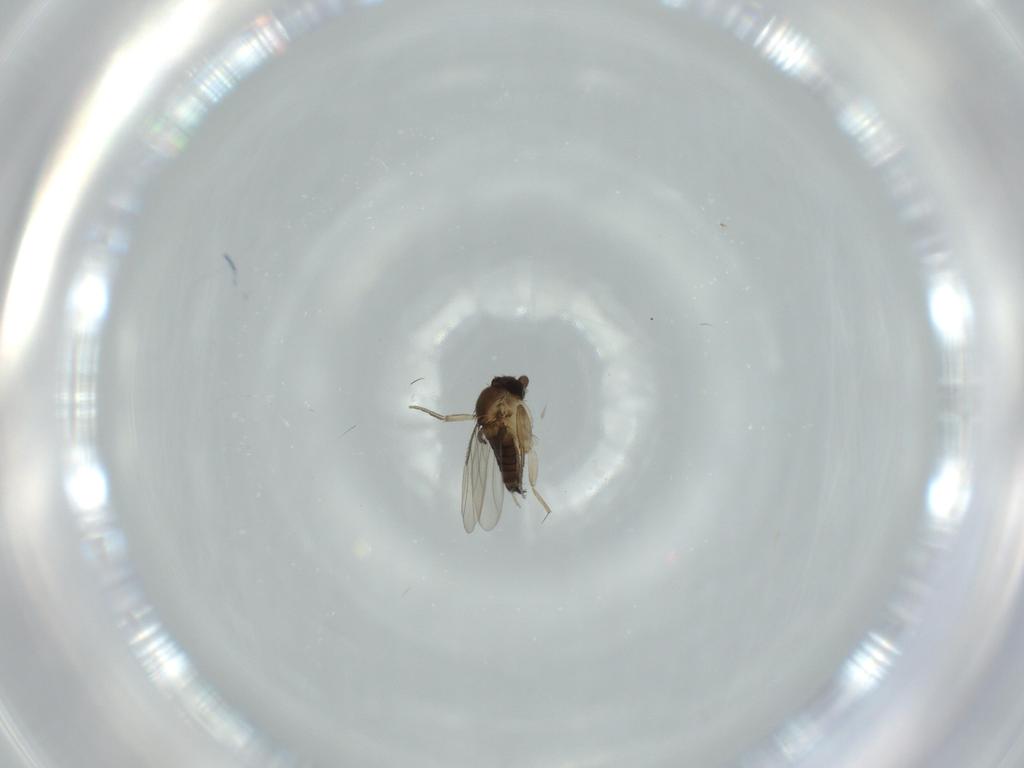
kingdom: Animalia
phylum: Arthropoda
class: Insecta
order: Diptera
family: Phoridae
